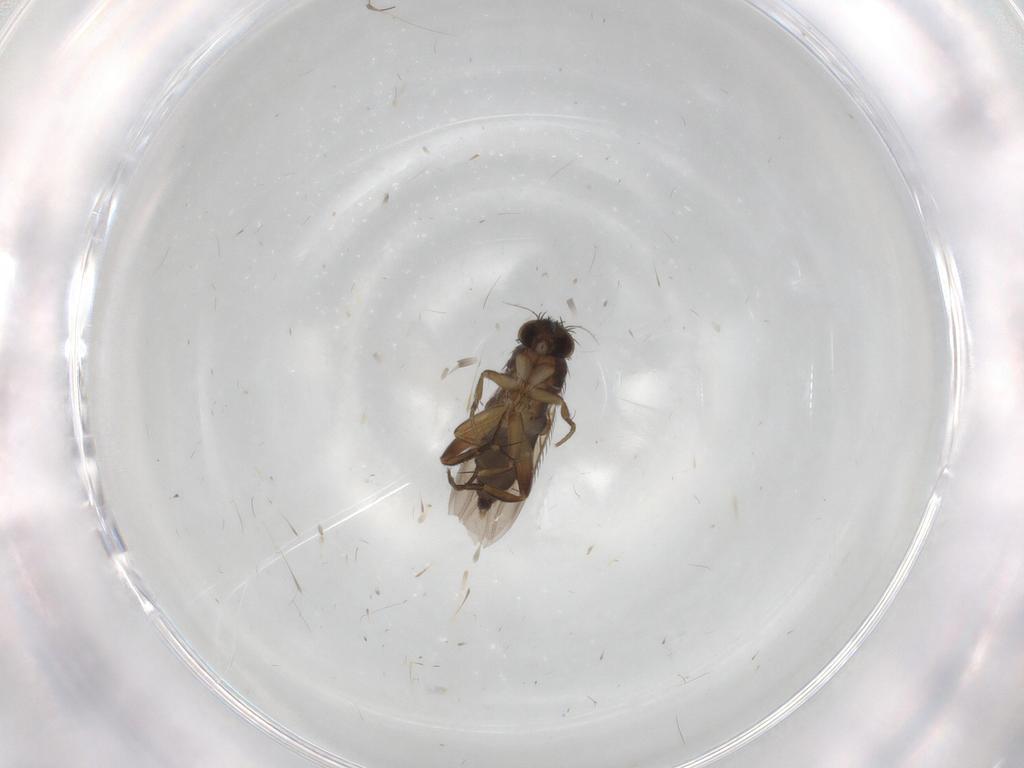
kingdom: Animalia
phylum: Arthropoda
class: Insecta
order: Diptera
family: Phoridae
